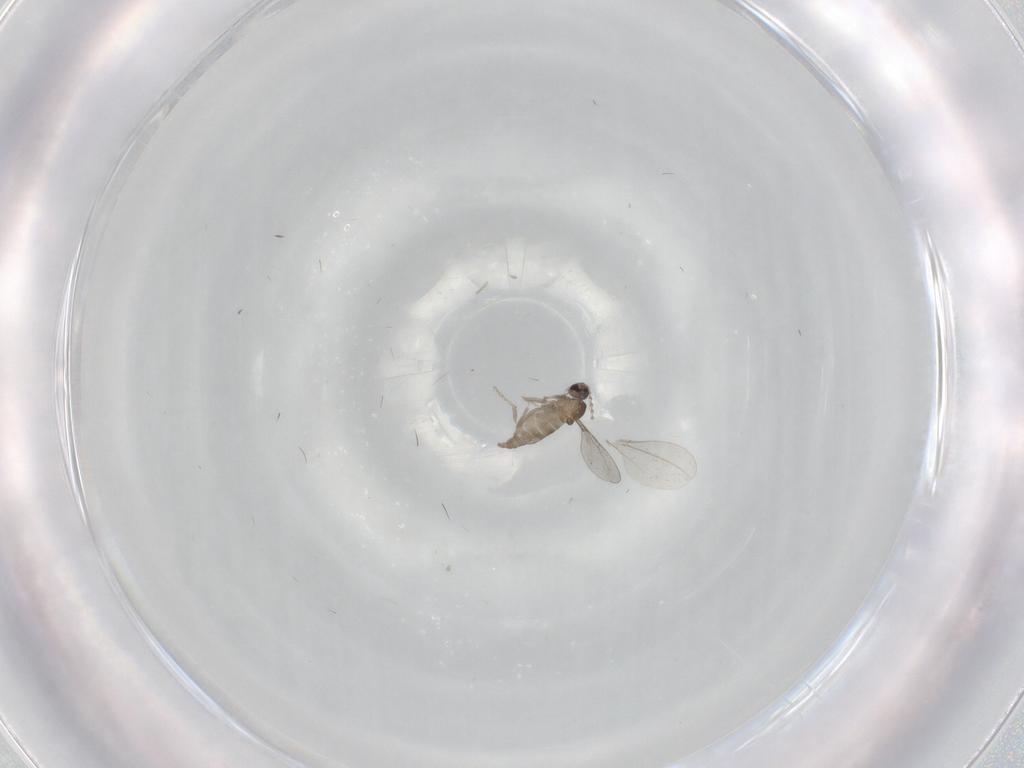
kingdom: Animalia
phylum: Arthropoda
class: Insecta
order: Diptera
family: Cecidomyiidae
